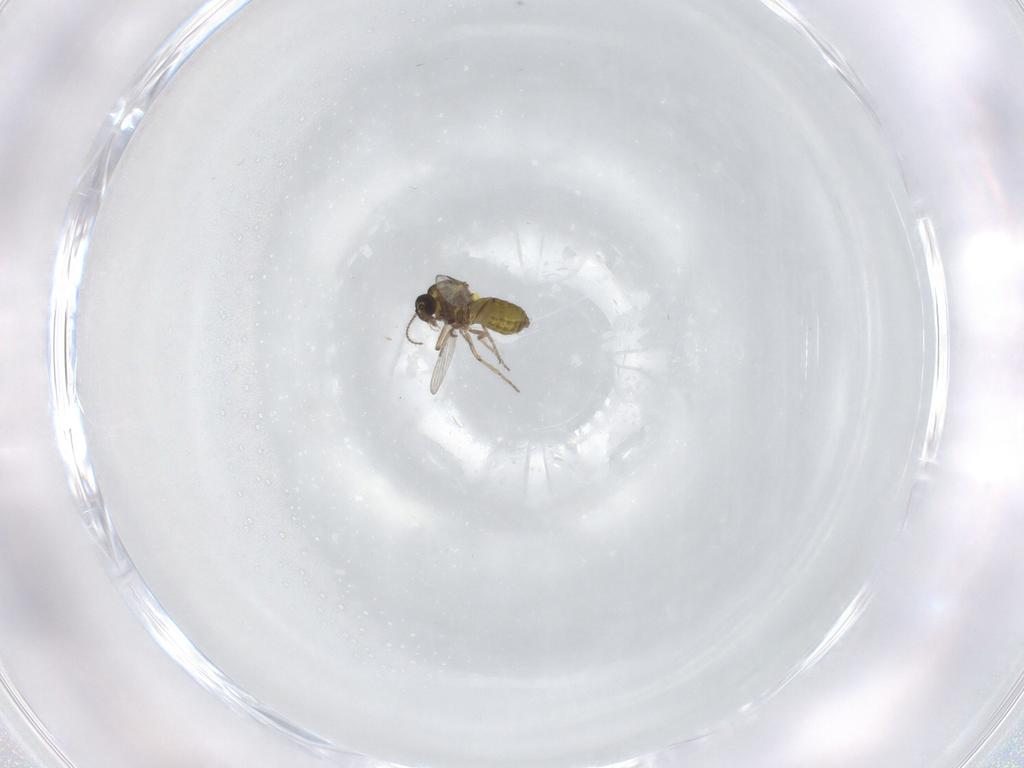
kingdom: Animalia
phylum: Arthropoda
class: Insecta
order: Diptera
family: Ceratopogonidae
